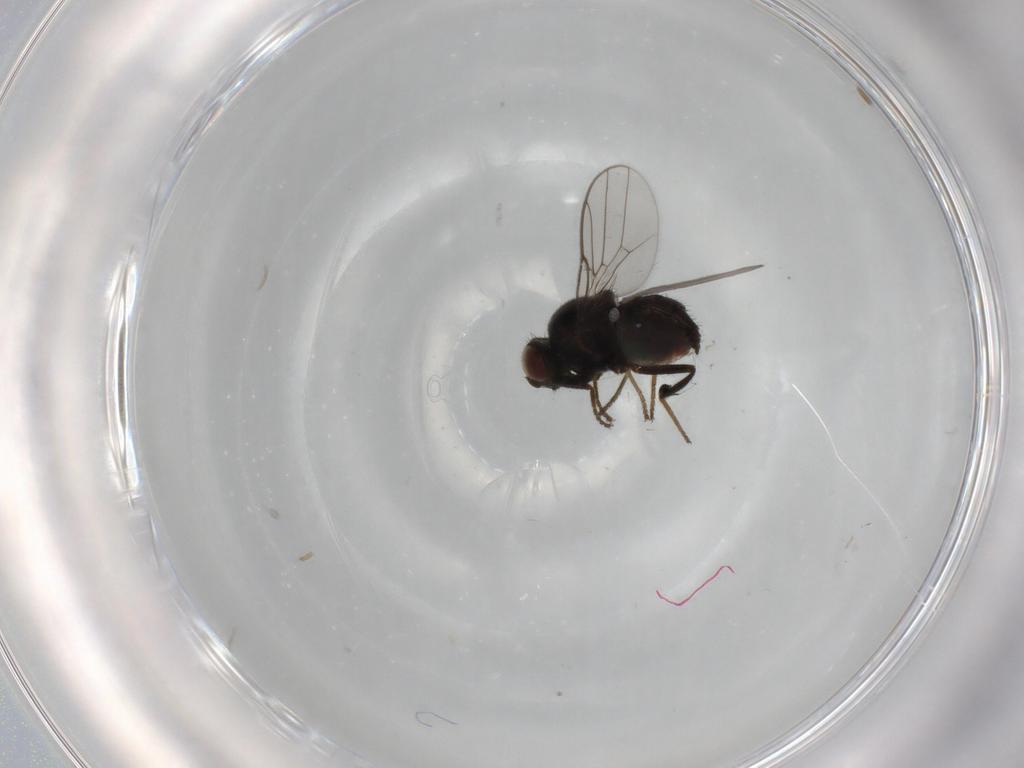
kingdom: Animalia
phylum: Arthropoda
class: Insecta
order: Diptera
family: Chloropidae
